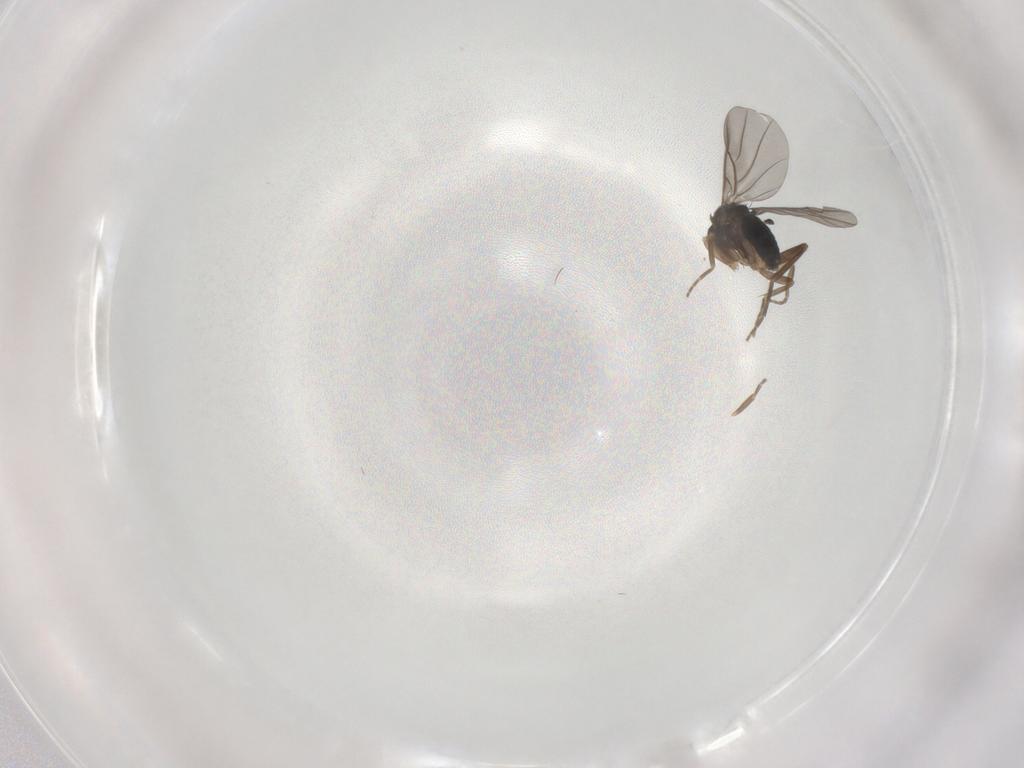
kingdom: Animalia
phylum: Arthropoda
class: Insecta
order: Diptera
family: Phoridae
